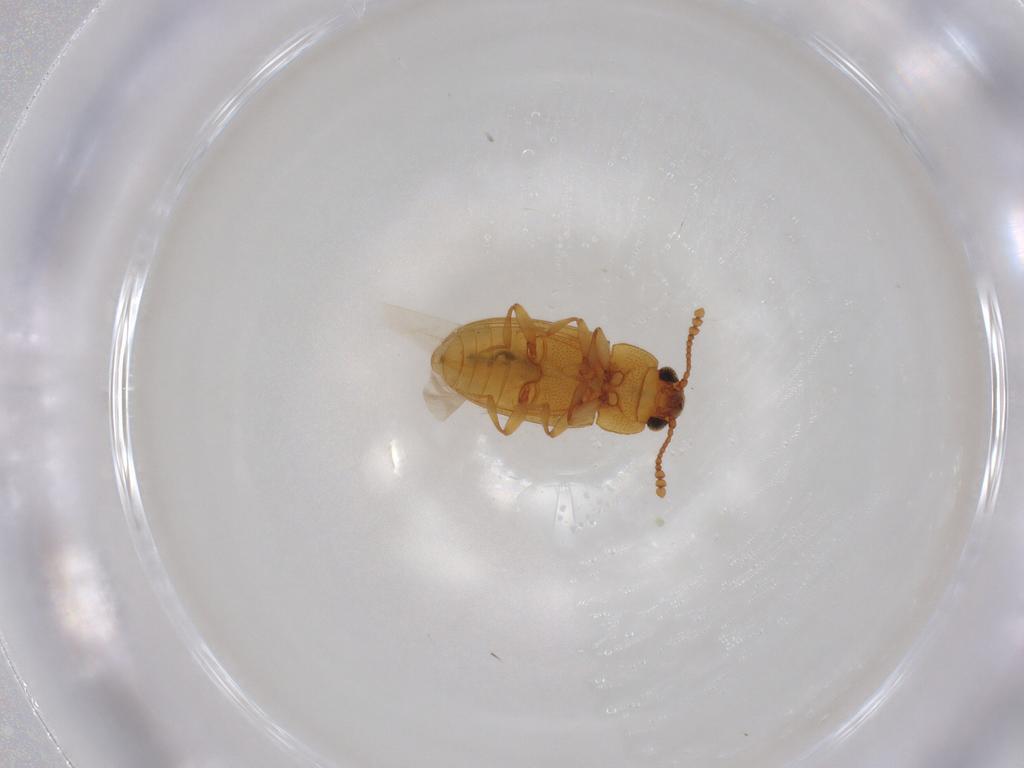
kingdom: Animalia
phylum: Arthropoda
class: Insecta
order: Coleoptera
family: Erotylidae
